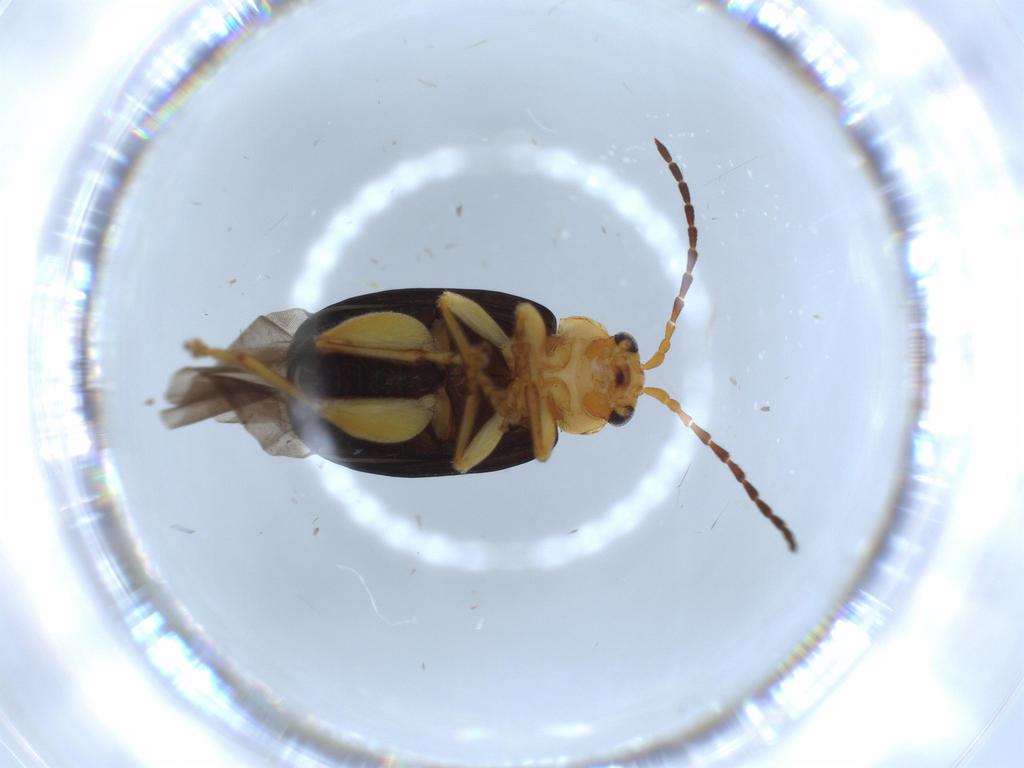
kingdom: Animalia
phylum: Arthropoda
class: Insecta
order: Coleoptera
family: Chrysomelidae
